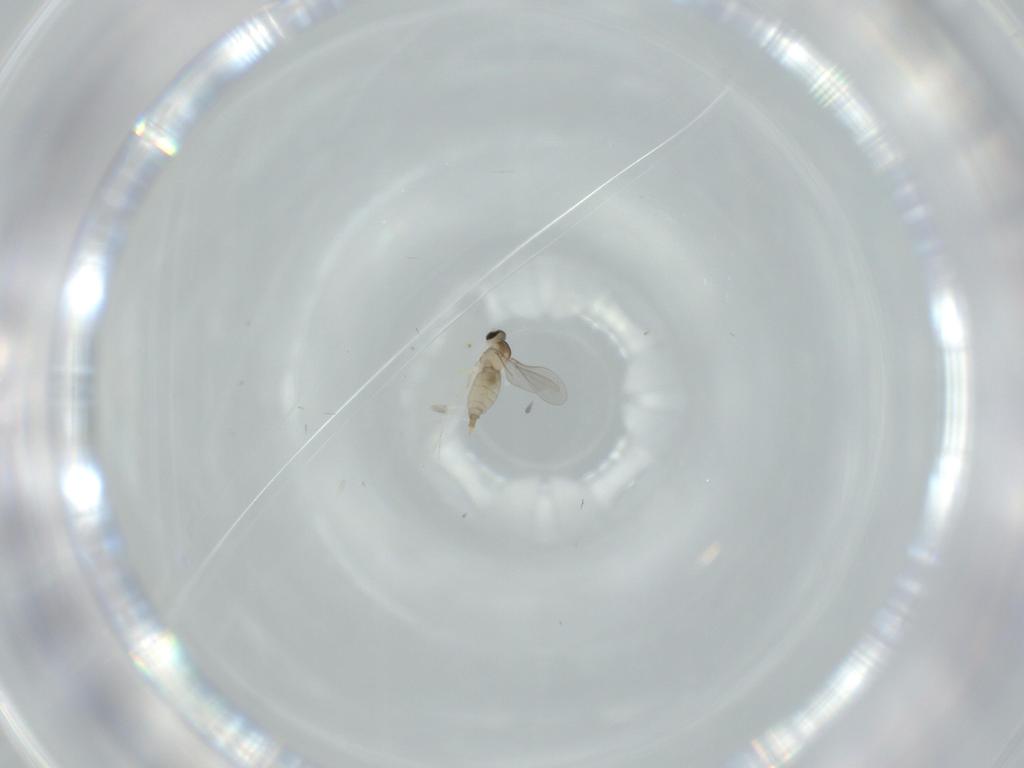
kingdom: Animalia
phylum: Arthropoda
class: Insecta
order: Diptera
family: Sciaridae
